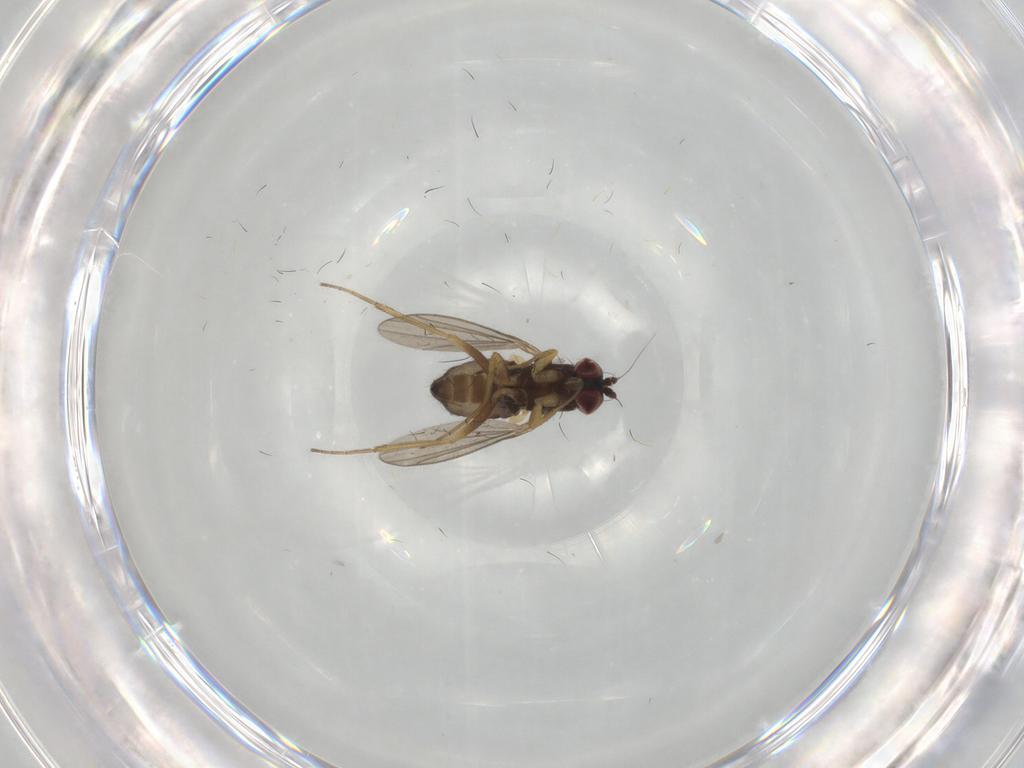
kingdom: Animalia
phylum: Arthropoda
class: Insecta
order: Diptera
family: Dolichopodidae
